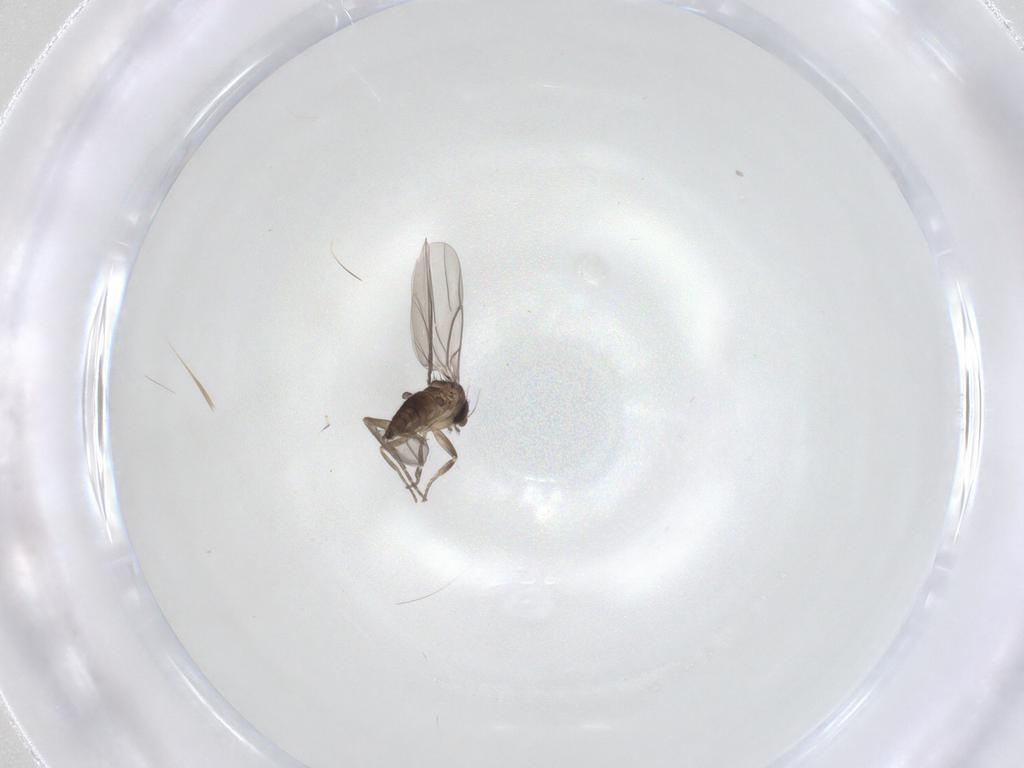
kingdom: Animalia
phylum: Arthropoda
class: Insecta
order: Diptera
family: Phoridae
